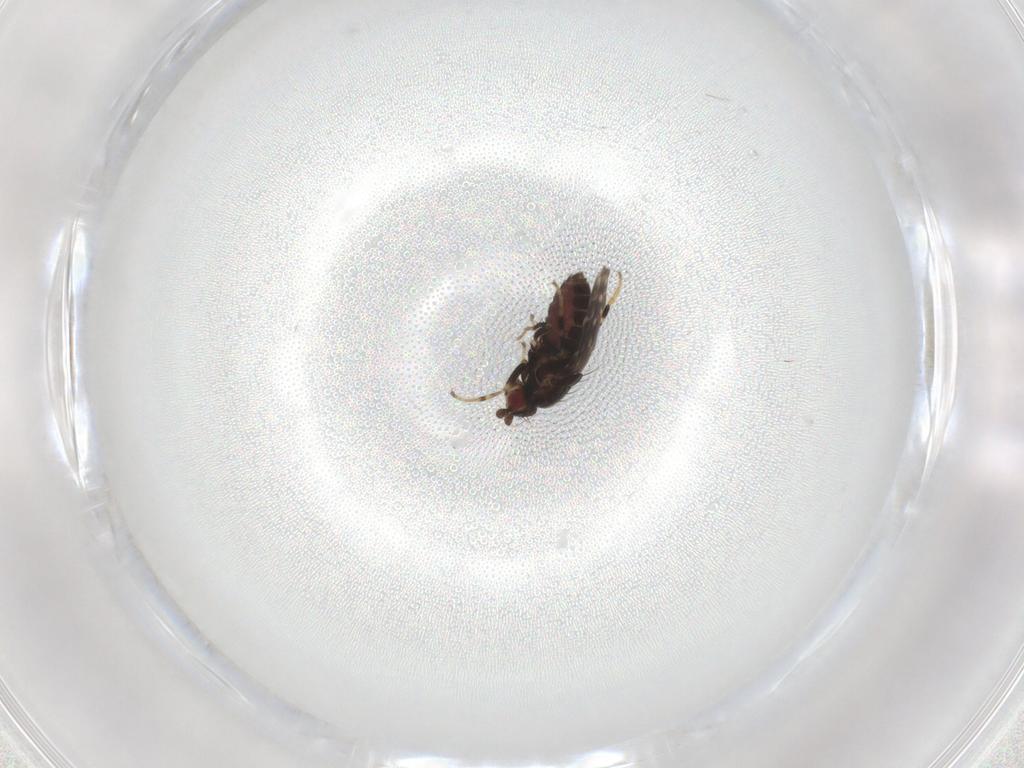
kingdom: Animalia
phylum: Arthropoda
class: Insecta
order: Diptera
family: Sphaeroceridae
